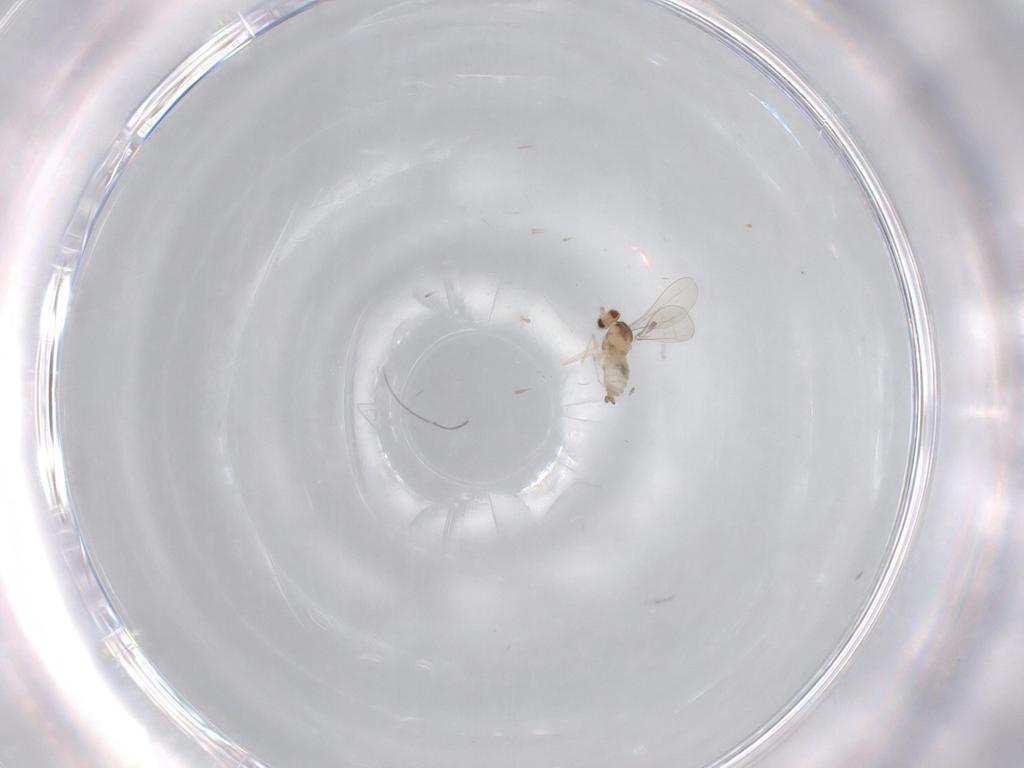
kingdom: Animalia
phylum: Arthropoda
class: Insecta
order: Diptera
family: Cecidomyiidae
